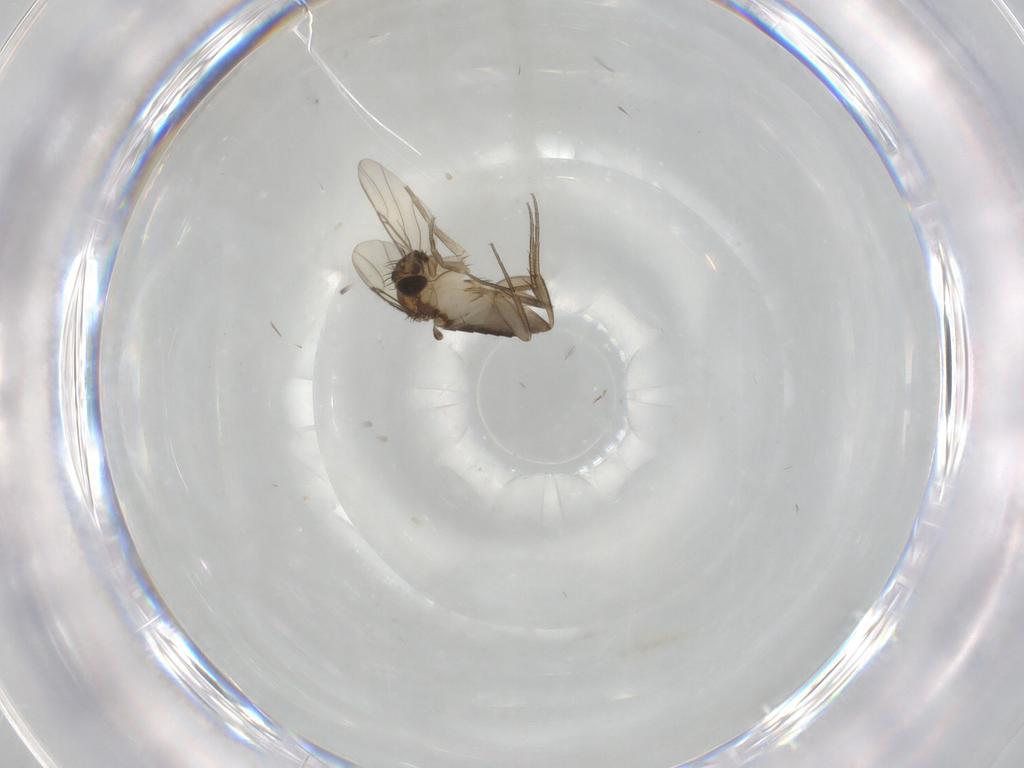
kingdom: Animalia
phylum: Arthropoda
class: Insecta
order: Diptera
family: Phoridae
